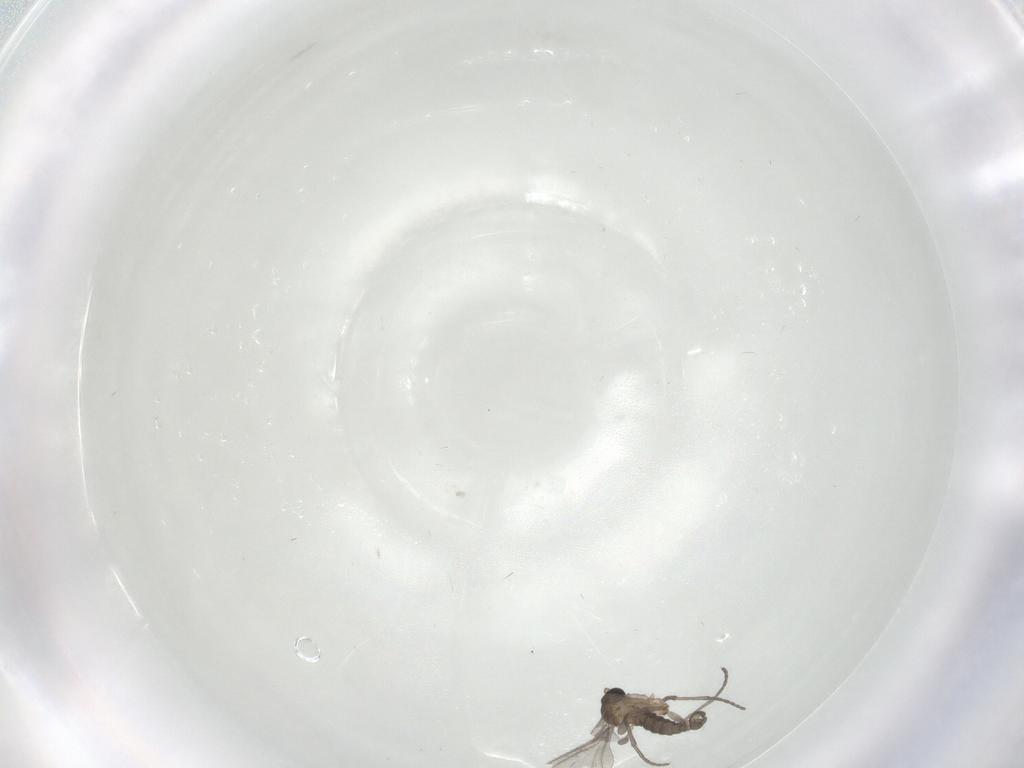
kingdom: Animalia
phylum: Arthropoda
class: Insecta
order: Diptera
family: Sciaridae
